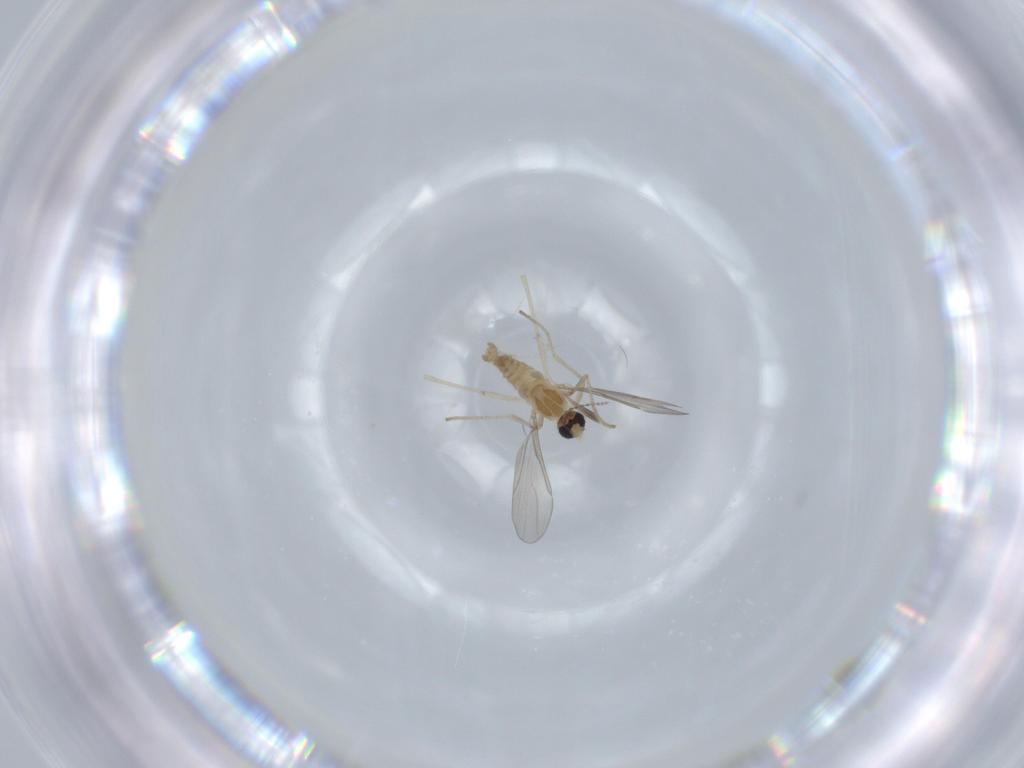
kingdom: Animalia
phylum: Arthropoda
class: Insecta
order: Diptera
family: Cecidomyiidae
